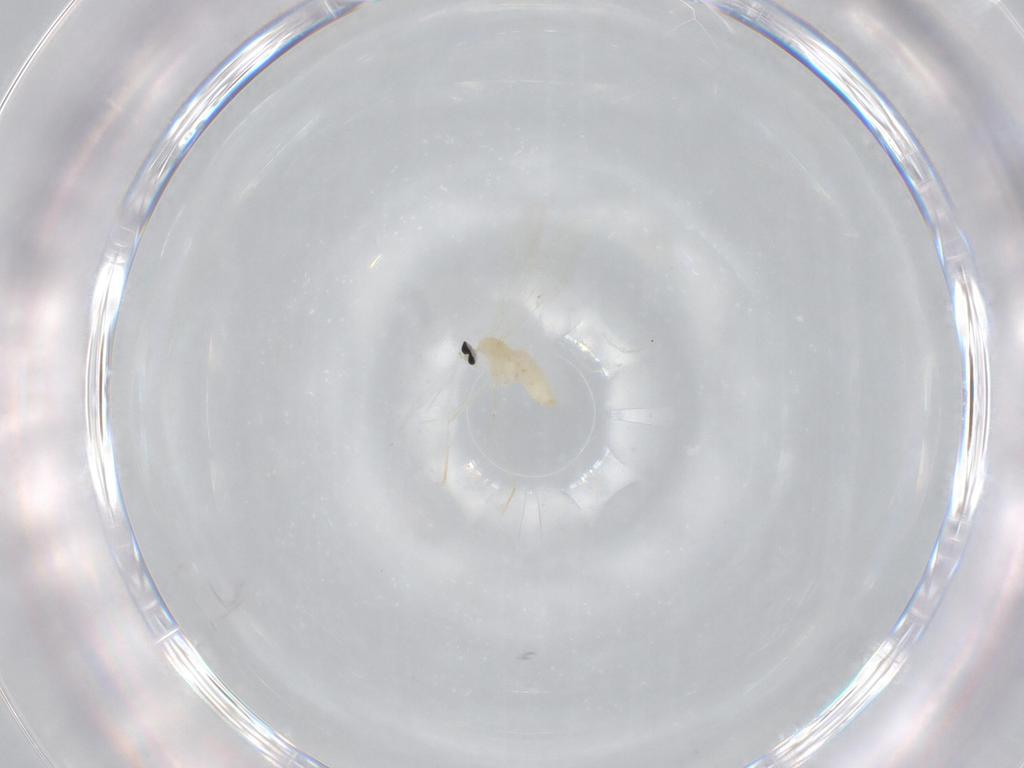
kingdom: Animalia
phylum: Arthropoda
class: Insecta
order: Diptera
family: Cecidomyiidae
